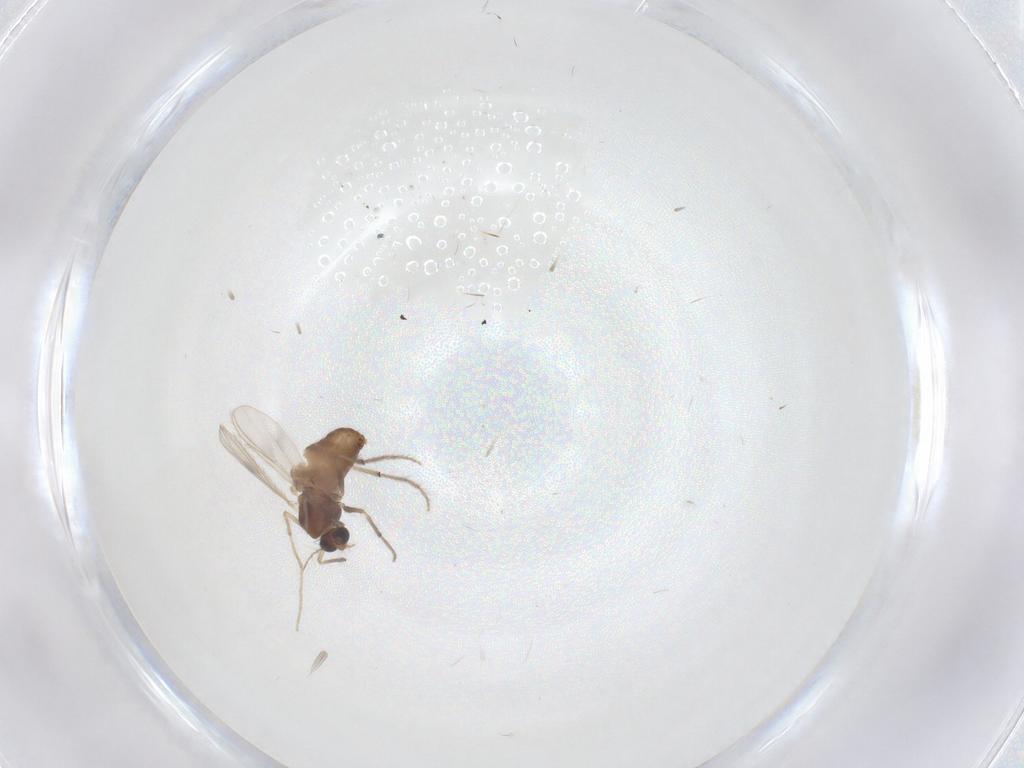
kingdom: Animalia
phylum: Arthropoda
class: Insecta
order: Diptera
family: Chironomidae
